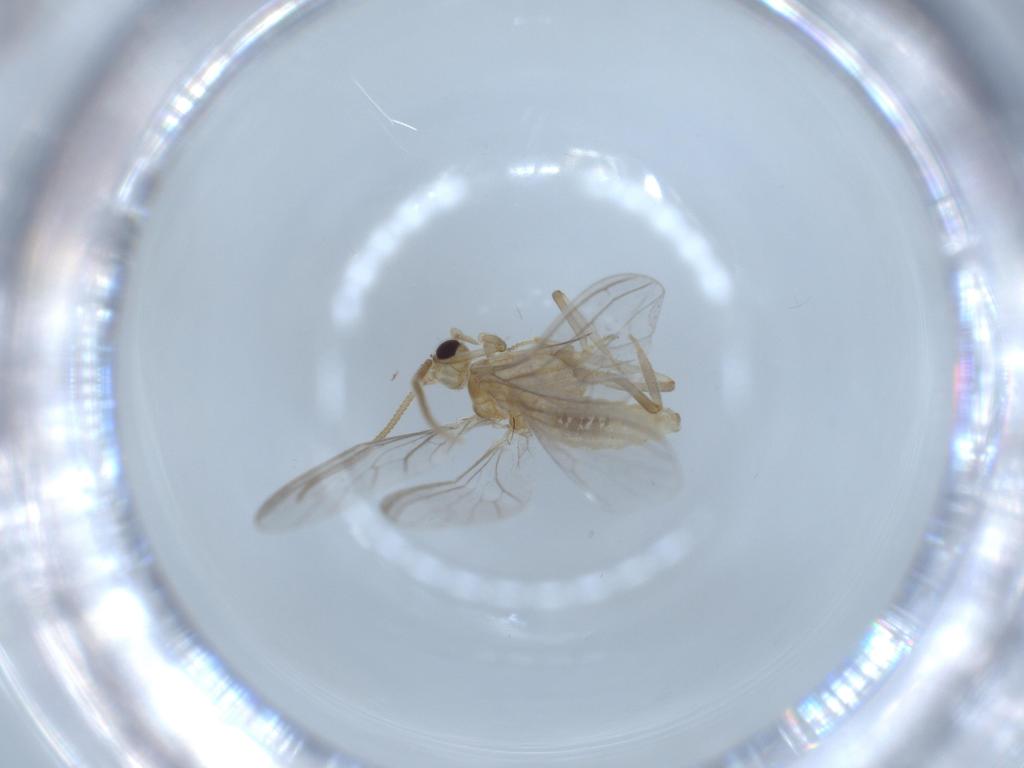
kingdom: Animalia
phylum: Arthropoda
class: Insecta
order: Neuroptera
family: Coniopterygidae
